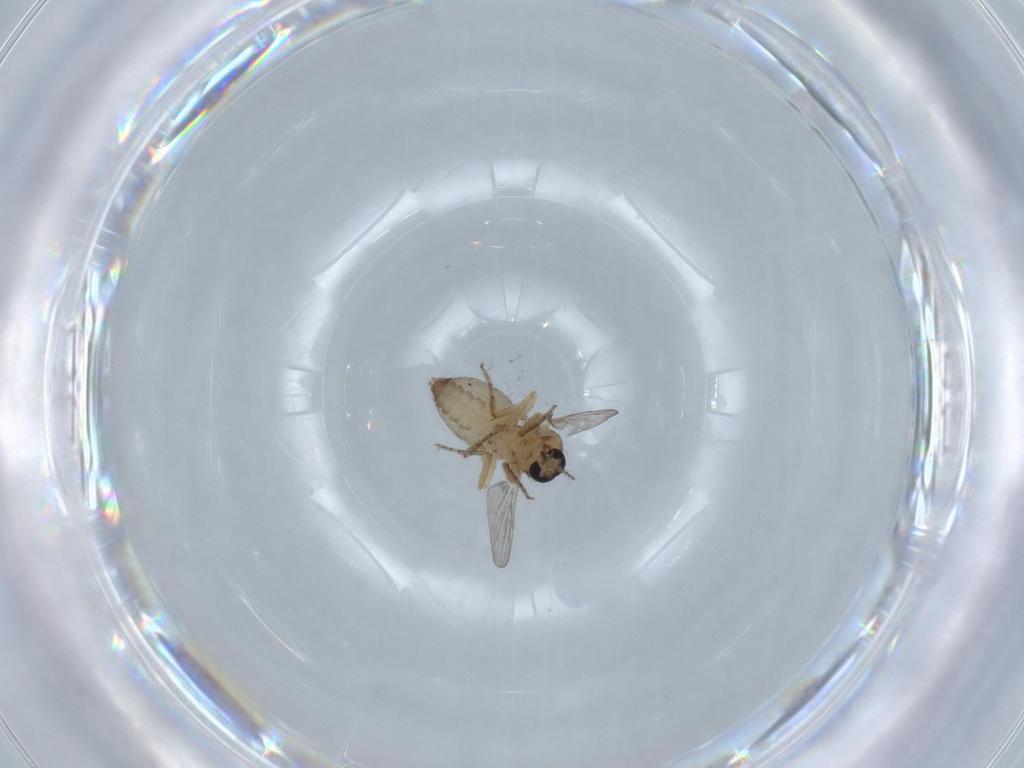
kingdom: Animalia
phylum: Arthropoda
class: Insecta
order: Diptera
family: Ceratopogonidae
